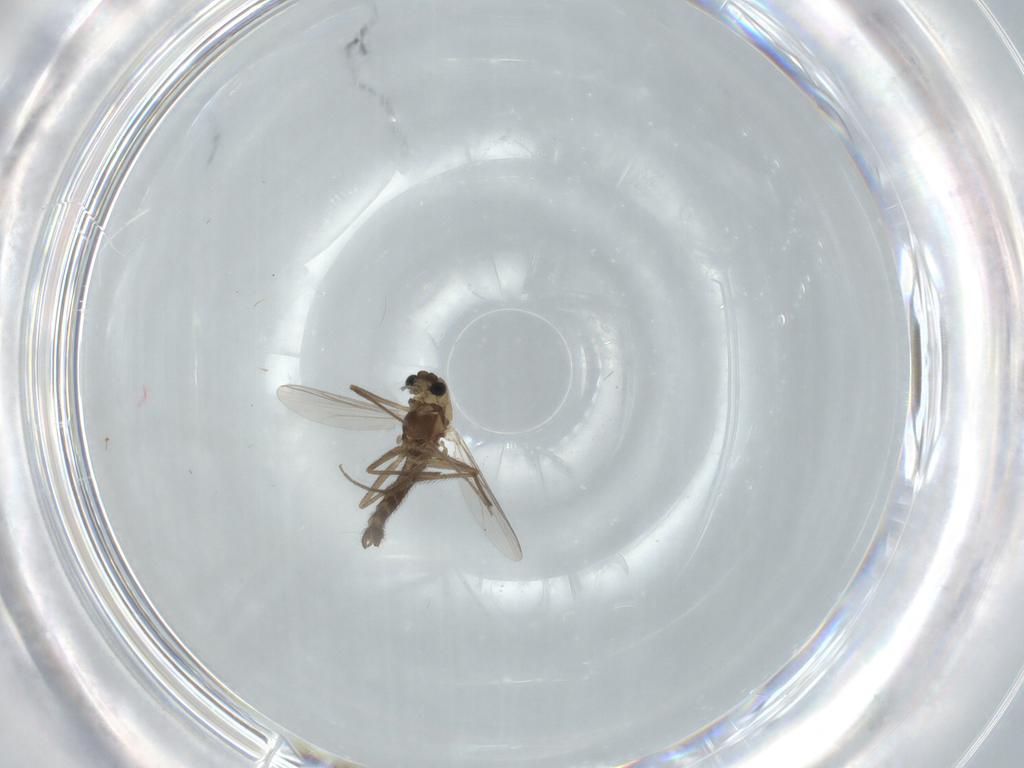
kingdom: Animalia
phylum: Arthropoda
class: Insecta
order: Diptera
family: Chironomidae
